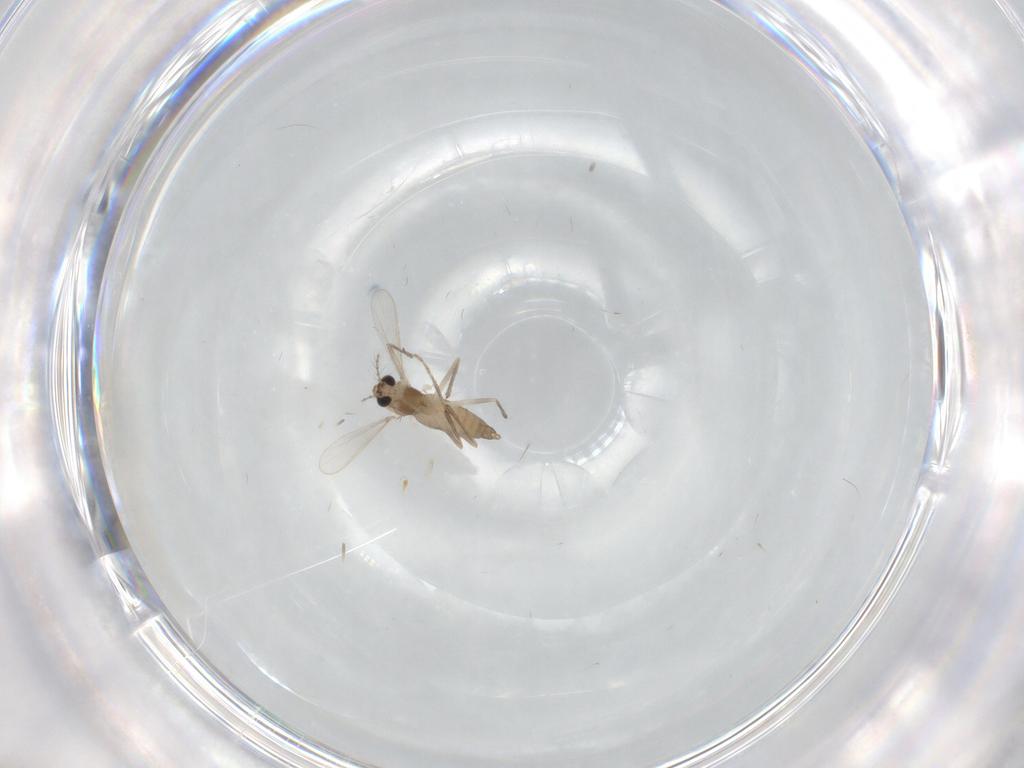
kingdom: Animalia
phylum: Arthropoda
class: Insecta
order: Diptera
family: Chironomidae
